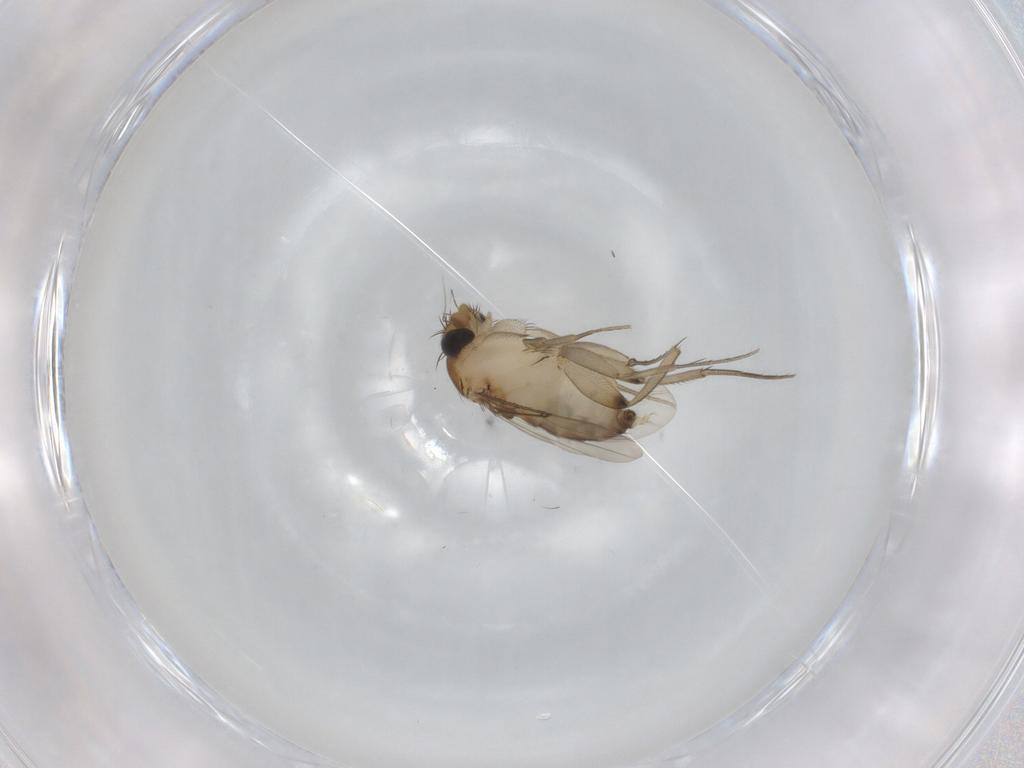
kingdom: Animalia
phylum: Arthropoda
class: Insecta
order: Diptera
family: Phoridae
